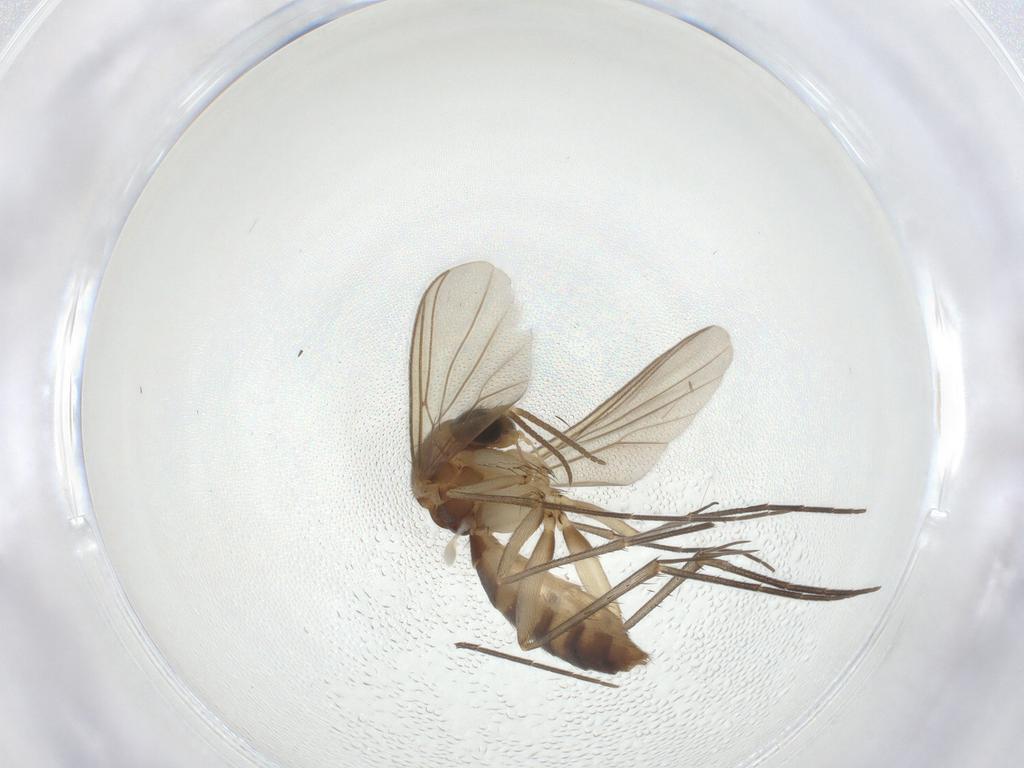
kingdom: Animalia
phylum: Arthropoda
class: Insecta
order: Diptera
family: Mycetophilidae
